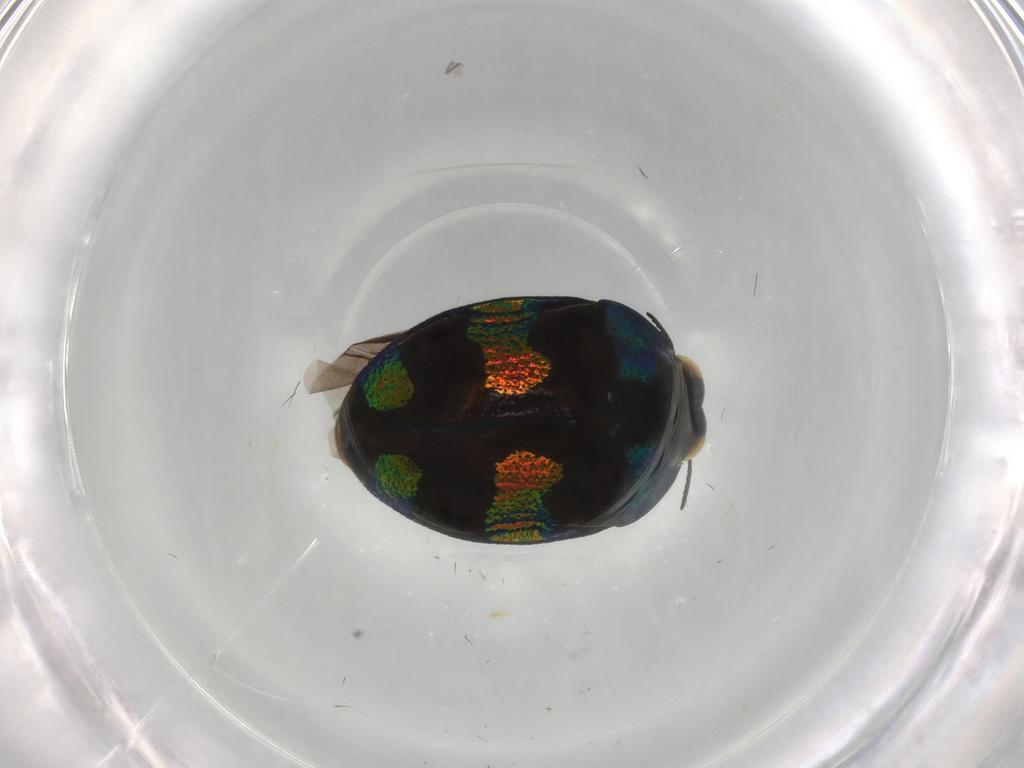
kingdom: Animalia
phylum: Arthropoda
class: Insecta
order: Coleoptera
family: Buprestidae
